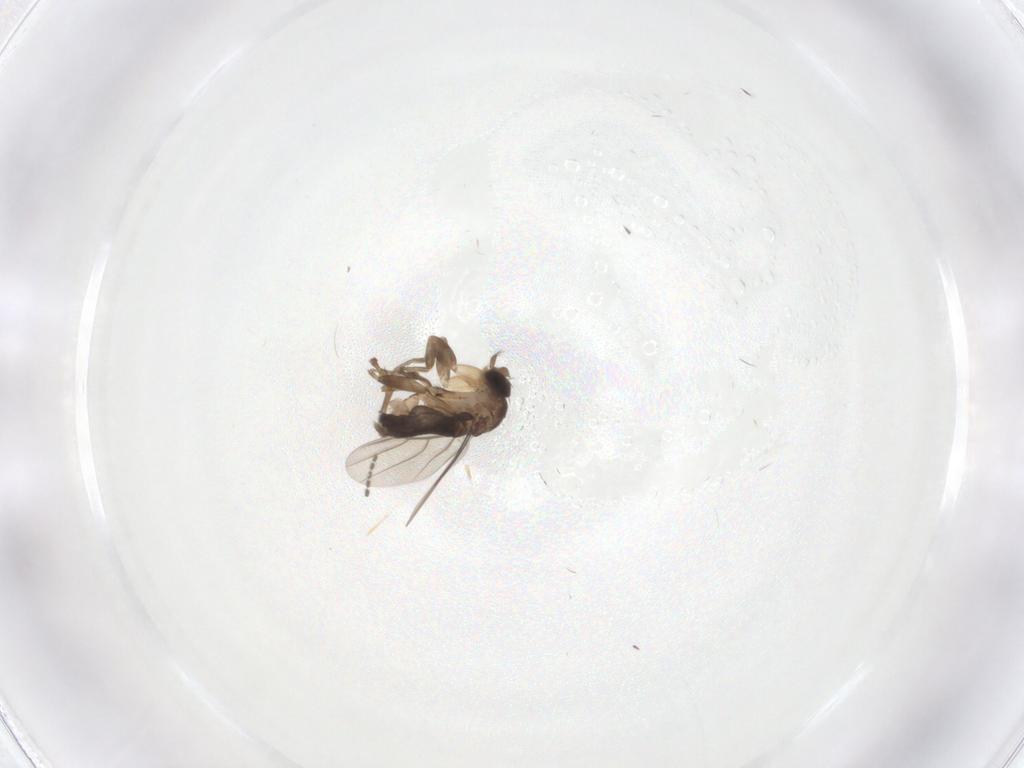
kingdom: Animalia
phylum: Arthropoda
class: Insecta
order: Diptera
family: Phoridae
